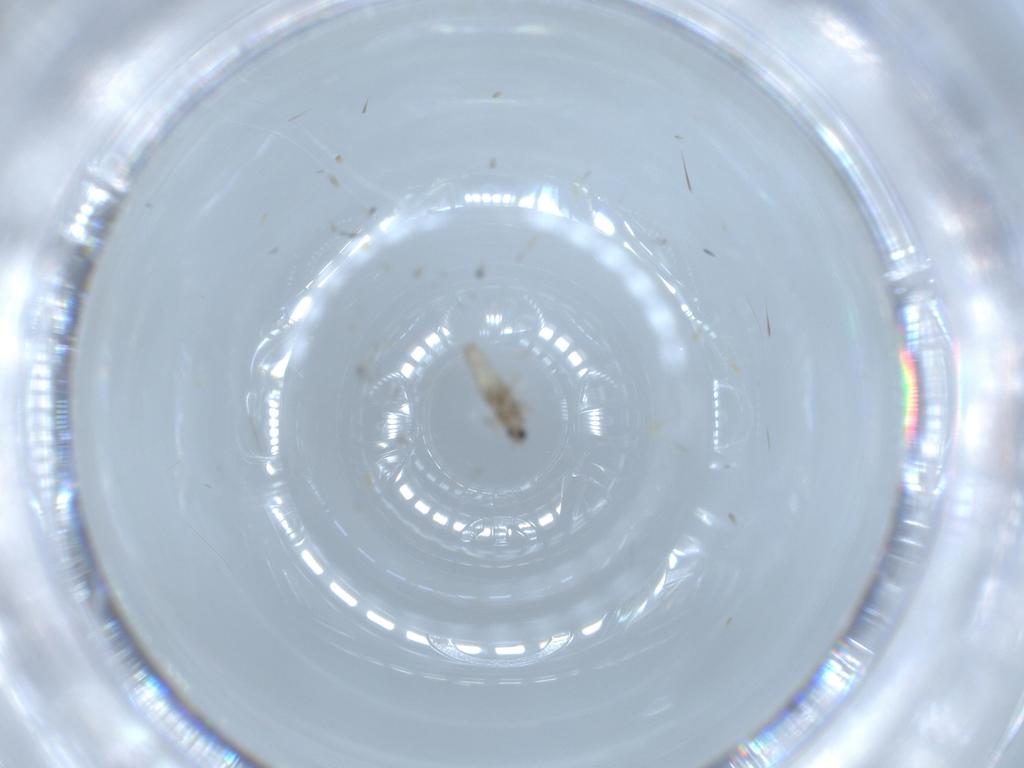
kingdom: Animalia
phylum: Arthropoda
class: Insecta
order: Diptera
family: Cecidomyiidae
